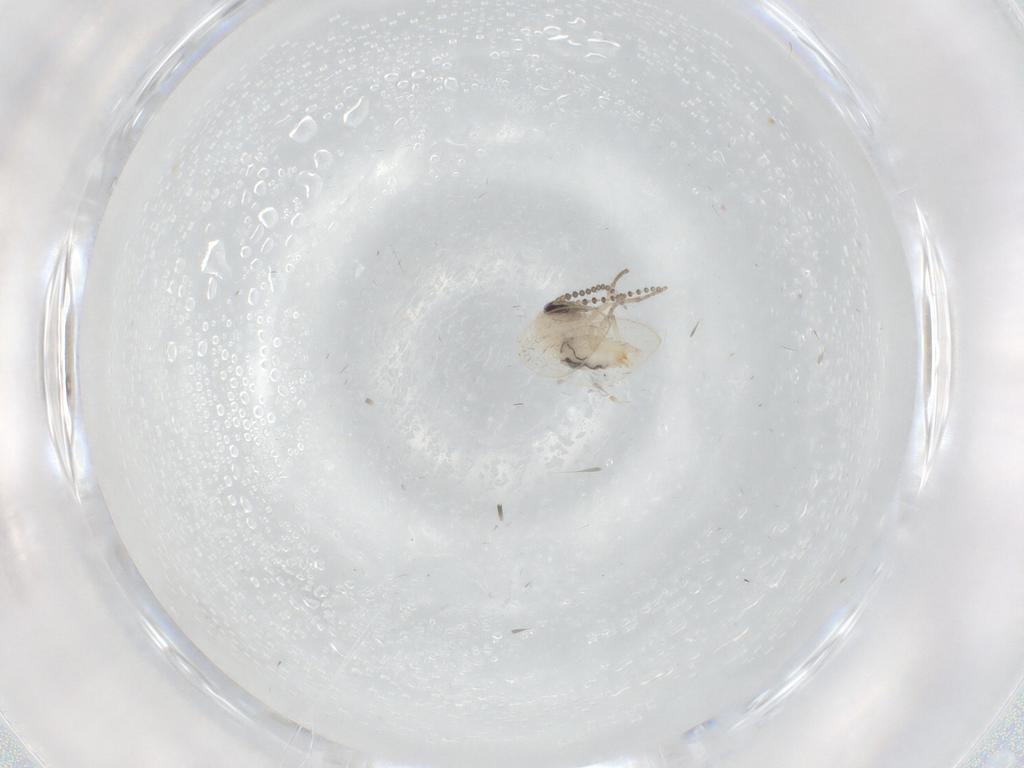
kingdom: Animalia
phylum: Arthropoda
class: Insecta
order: Diptera
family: Psychodidae
